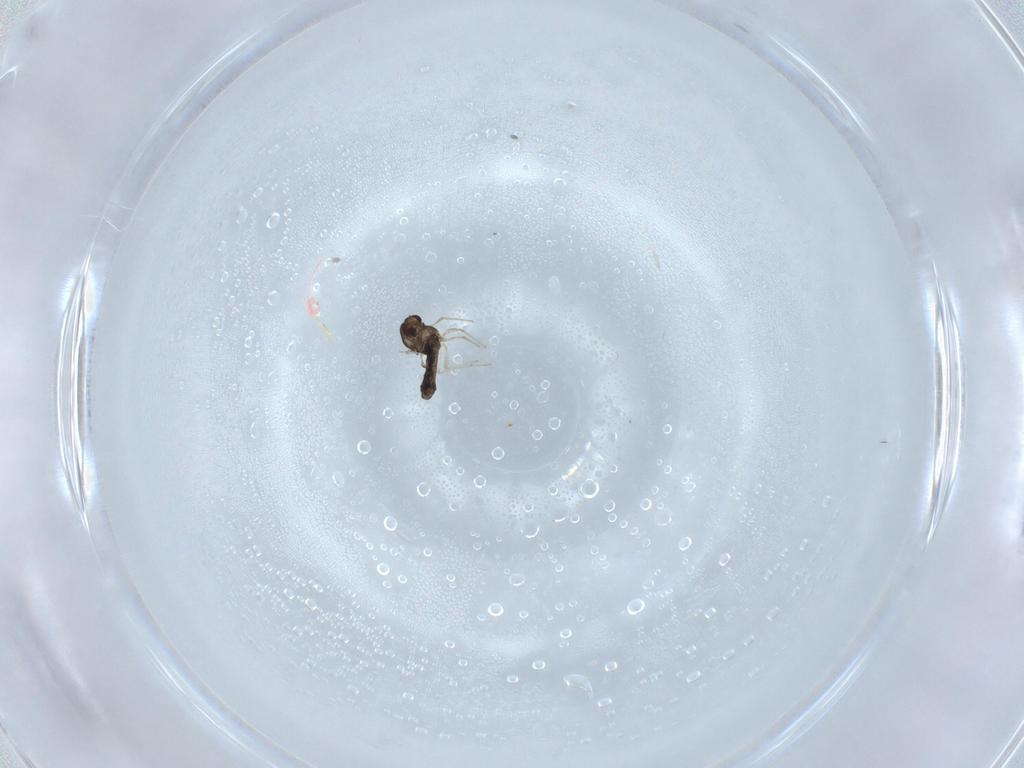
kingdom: Animalia
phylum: Arthropoda
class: Insecta
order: Diptera
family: Chironomidae
